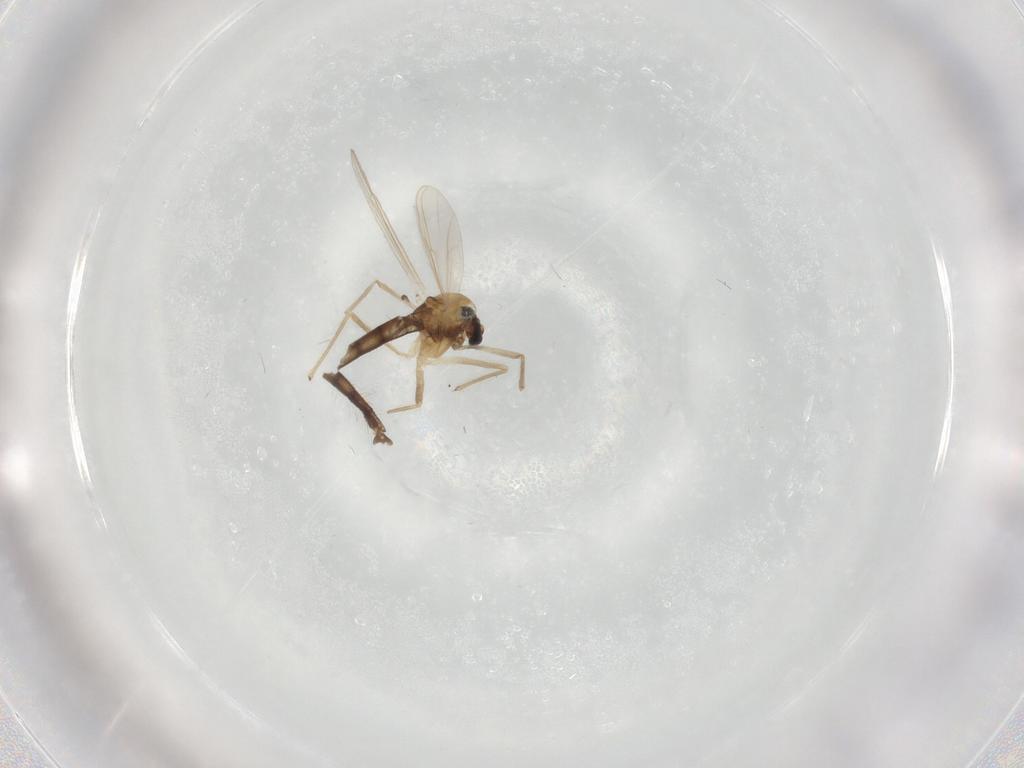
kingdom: Animalia
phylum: Arthropoda
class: Insecta
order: Diptera
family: Chironomidae
